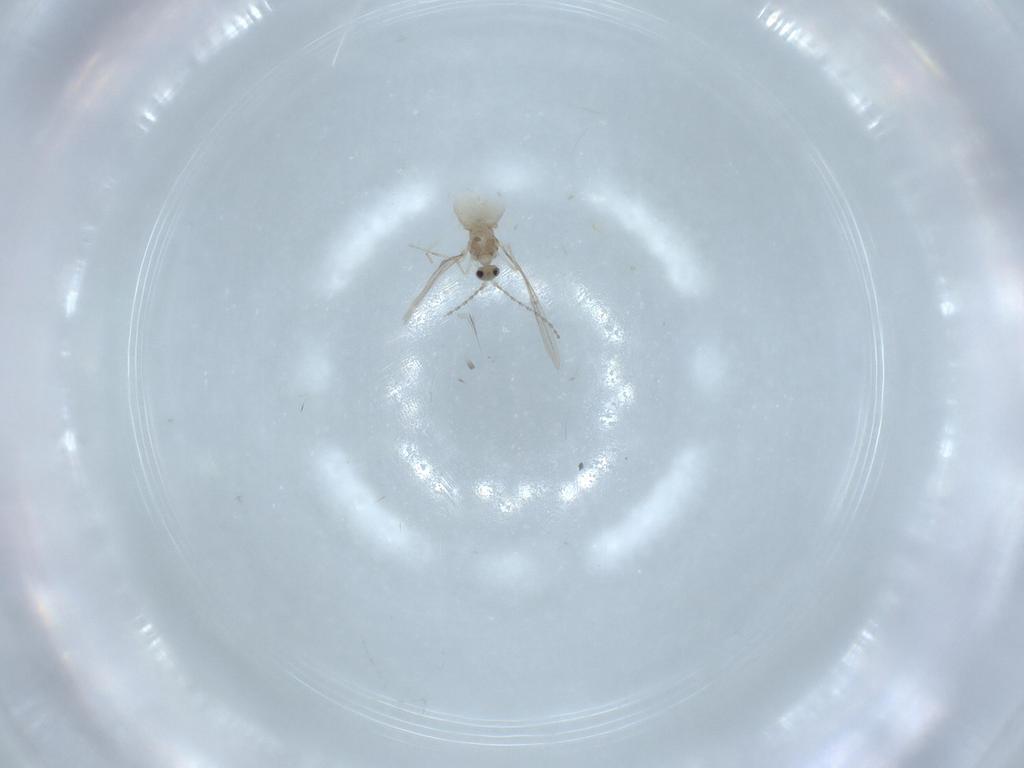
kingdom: Animalia
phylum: Arthropoda
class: Insecta
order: Diptera
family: Cecidomyiidae
